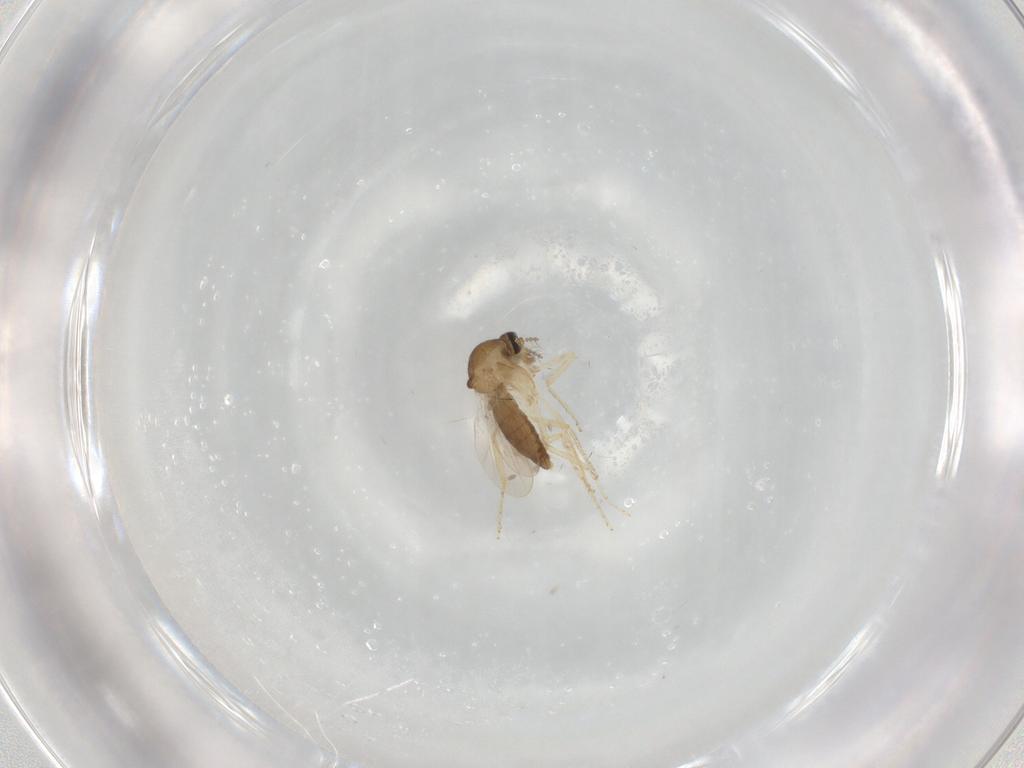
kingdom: Animalia
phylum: Arthropoda
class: Insecta
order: Diptera
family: Ceratopogonidae
